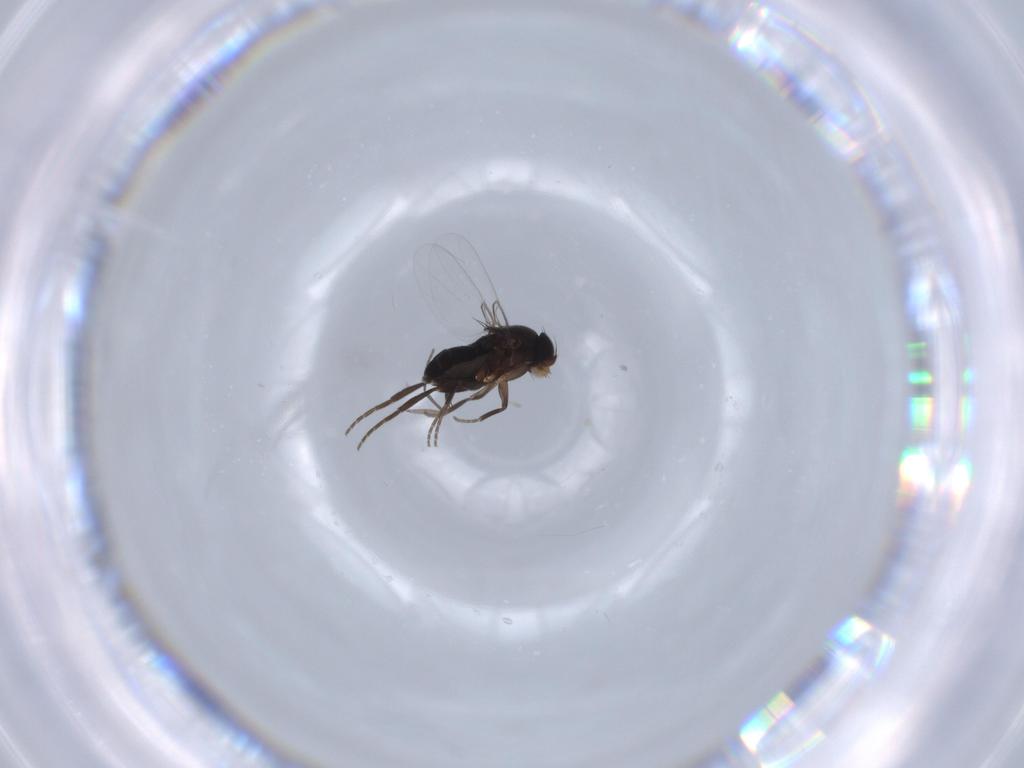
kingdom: Animalia
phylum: Arthropoda
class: Insecta
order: Diptera
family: Phoridae
